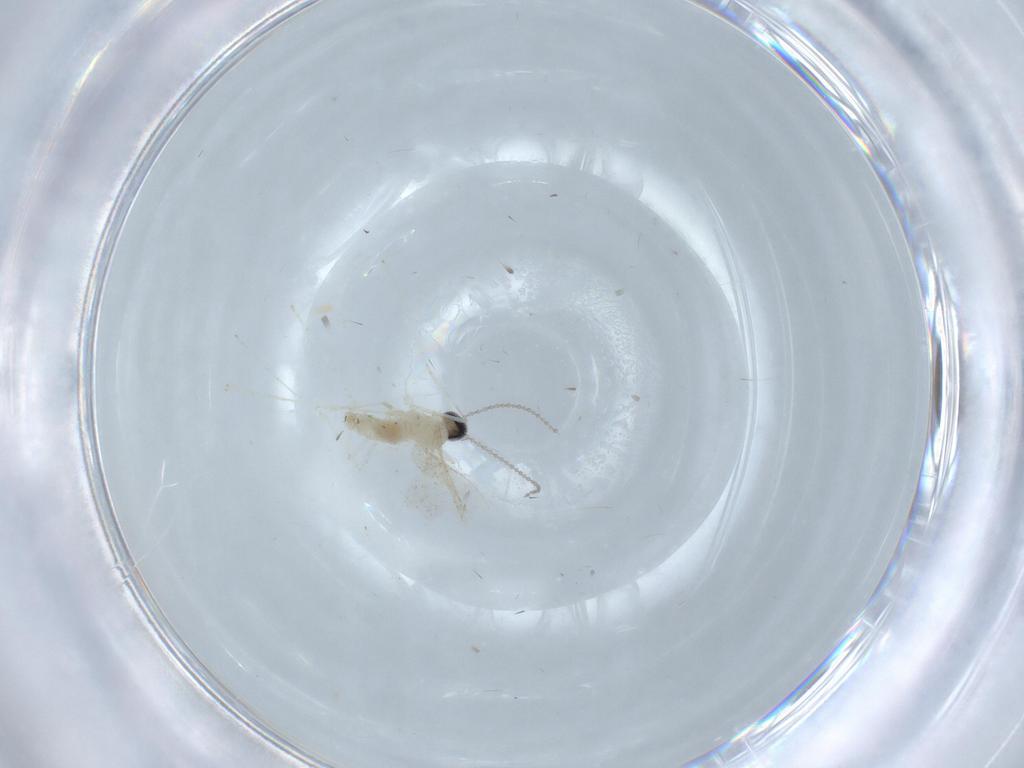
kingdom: Animalia
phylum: Arthropoda
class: Insecta
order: Diptera
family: Cecidomyiidae
